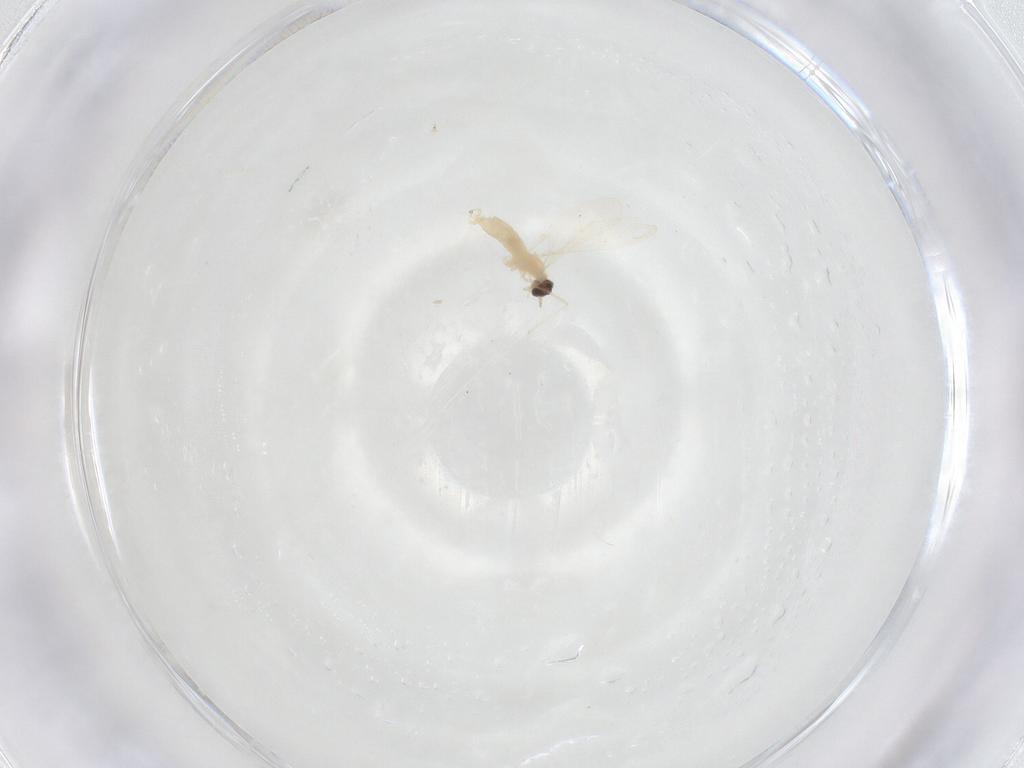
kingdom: Animalia
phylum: Arthropoda
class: Insecta
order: Diptera
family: Cecidomyiidae
